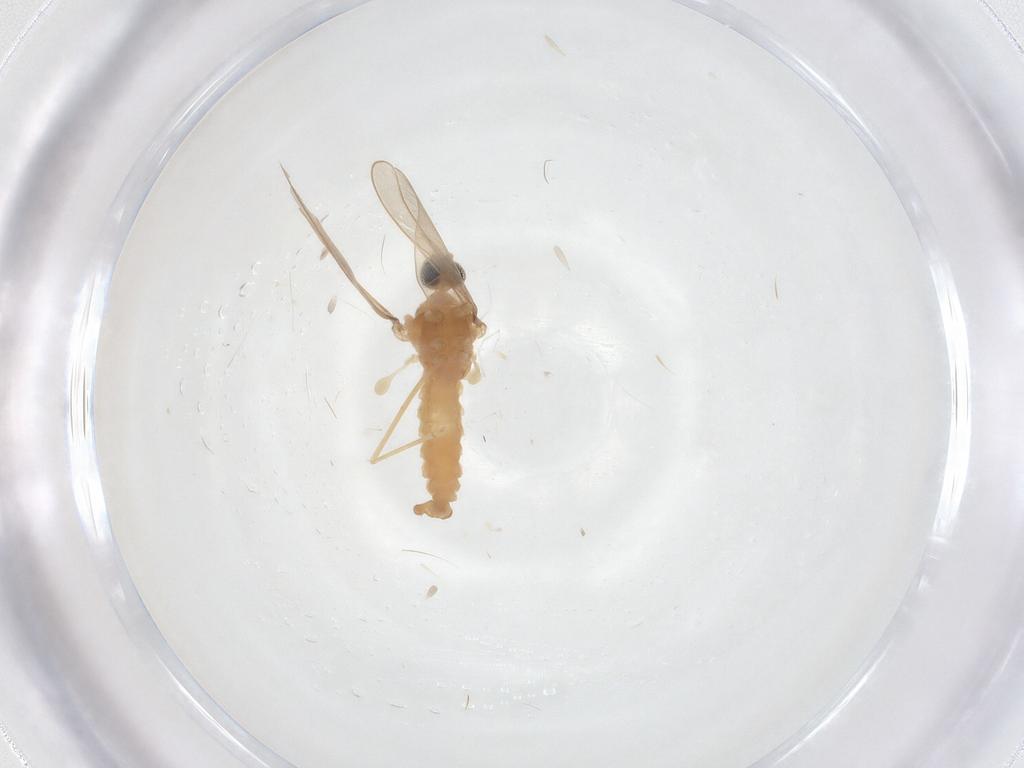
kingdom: Animalia
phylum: Arthropoda
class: Insecta
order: Diptera
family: Cecidomyiidae
